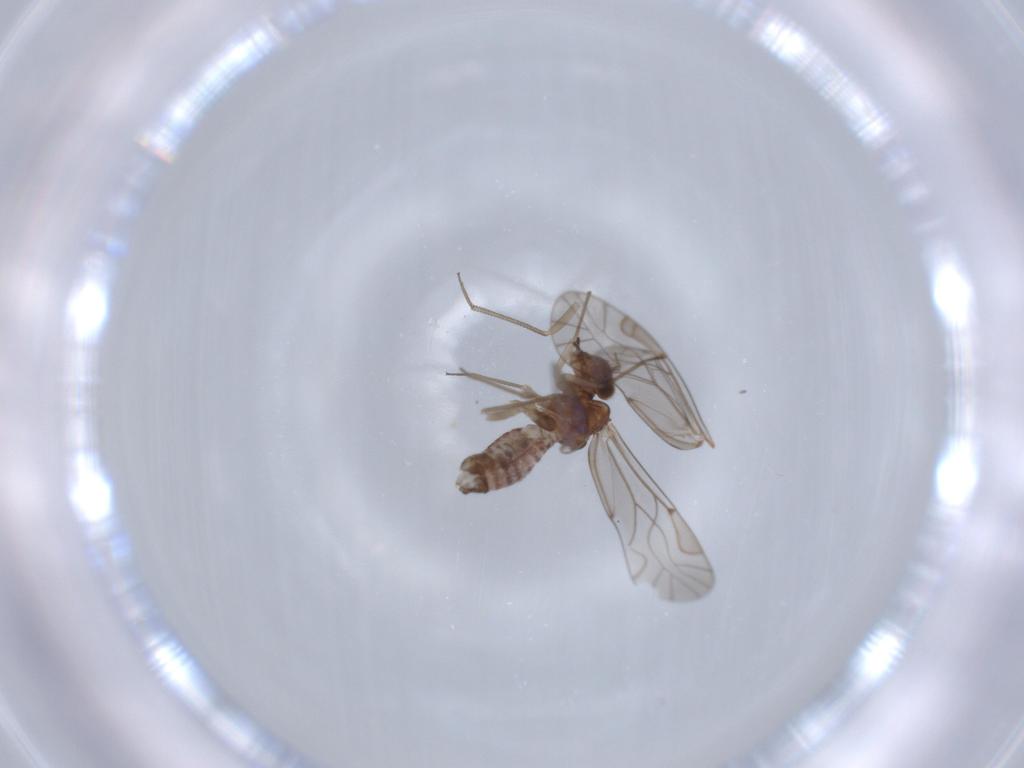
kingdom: Animalia
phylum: Arthropoda
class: Insecta
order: Psocodea
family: Lachesillidae
